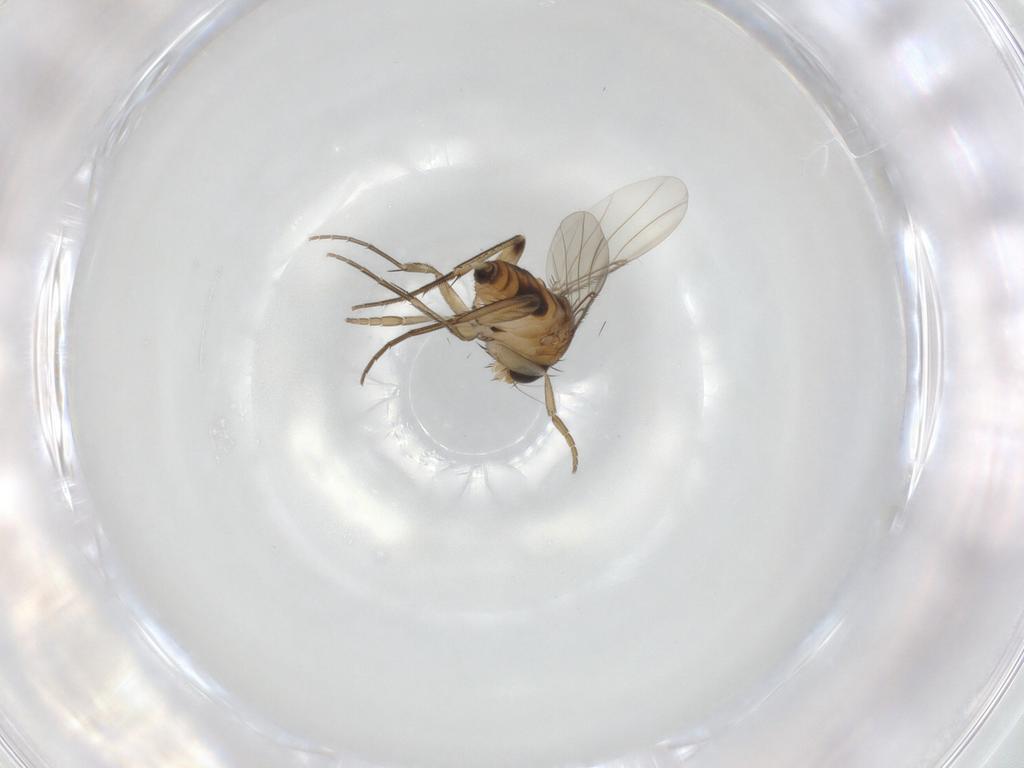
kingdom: Animalia
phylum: Arthropoda
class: Insecta
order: Diptera
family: Phoridae
